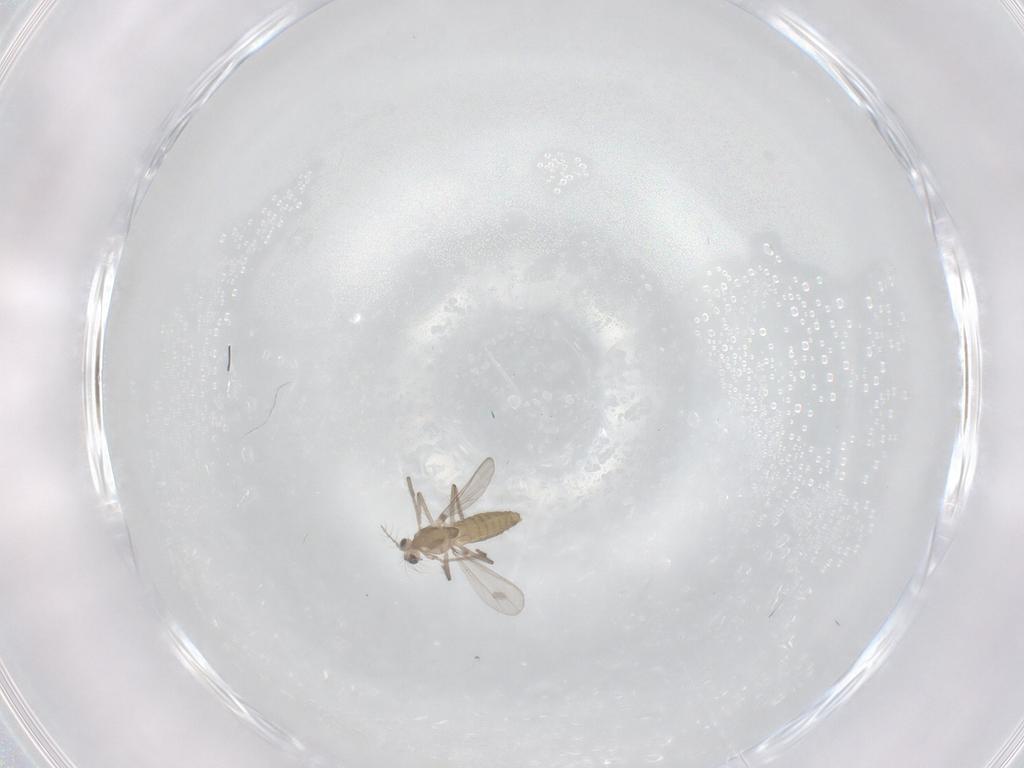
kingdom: Animalia
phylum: Arthropoda
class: Insecta
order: Diptera
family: Chironomidae
